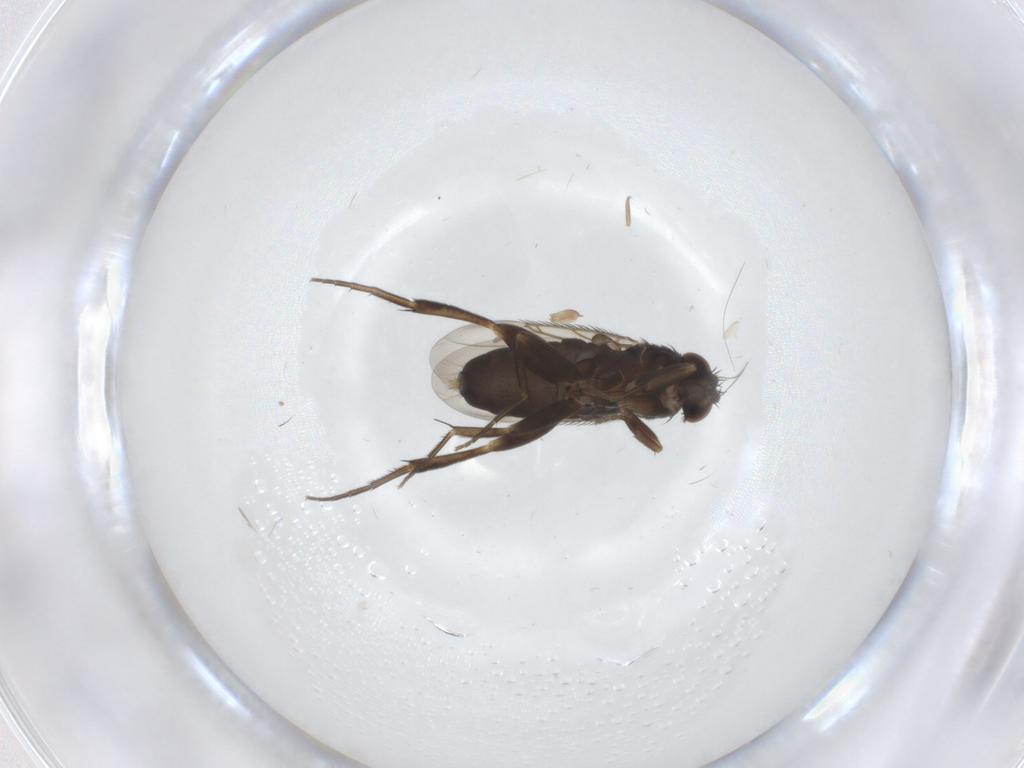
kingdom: Animalia
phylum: Arthropoda
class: Insecta
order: Diptera
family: Phoridae
